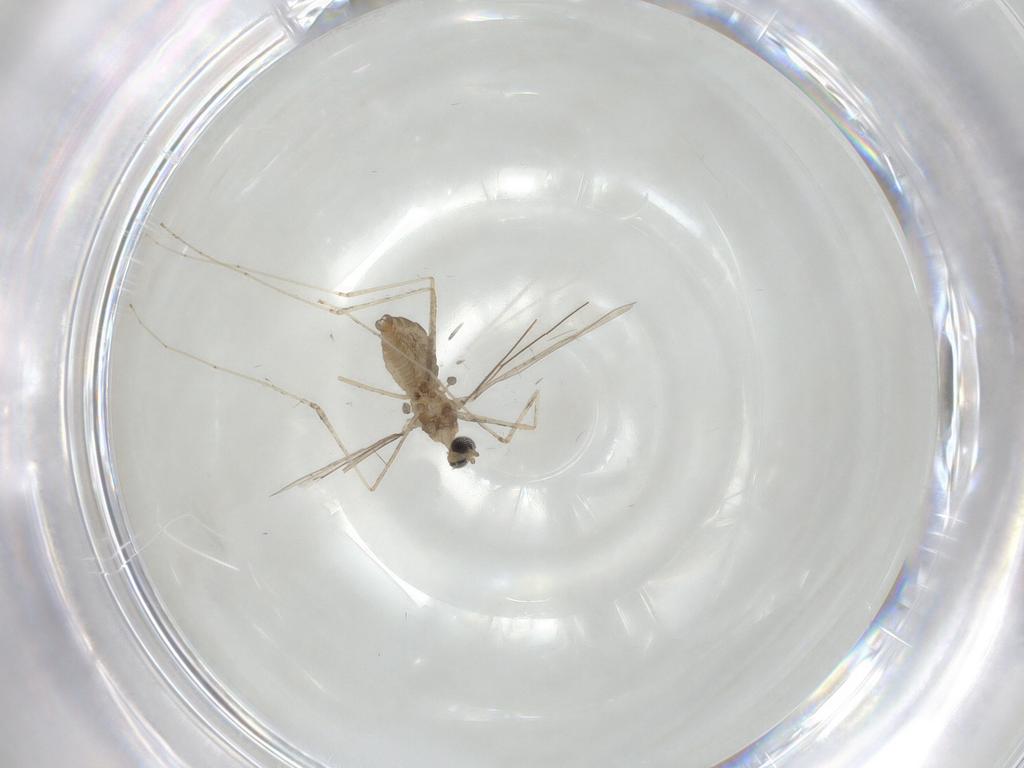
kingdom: Animalia
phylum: Arthropoda
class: Insecta
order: Diptera
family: Cecidomyiidae
